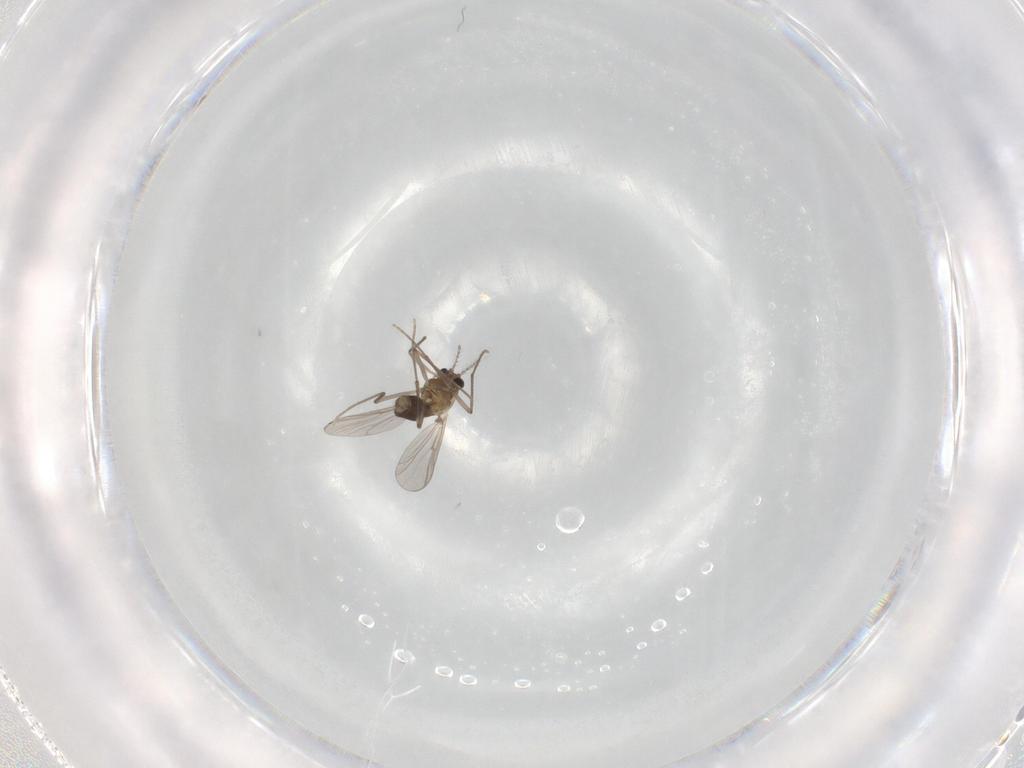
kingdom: Animalia
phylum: Arthropoda
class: Insecta
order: Diptera
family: Chironomidae
